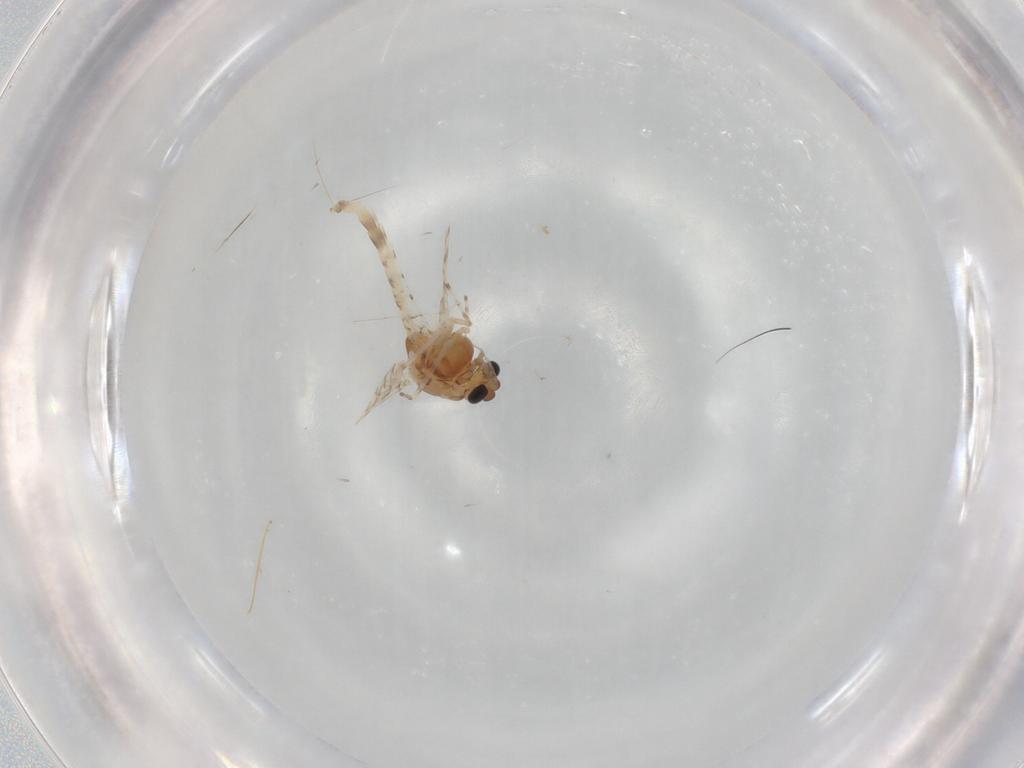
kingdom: Animalia
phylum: Arthropoda
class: Insecta
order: Diptera
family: Chironomidae
